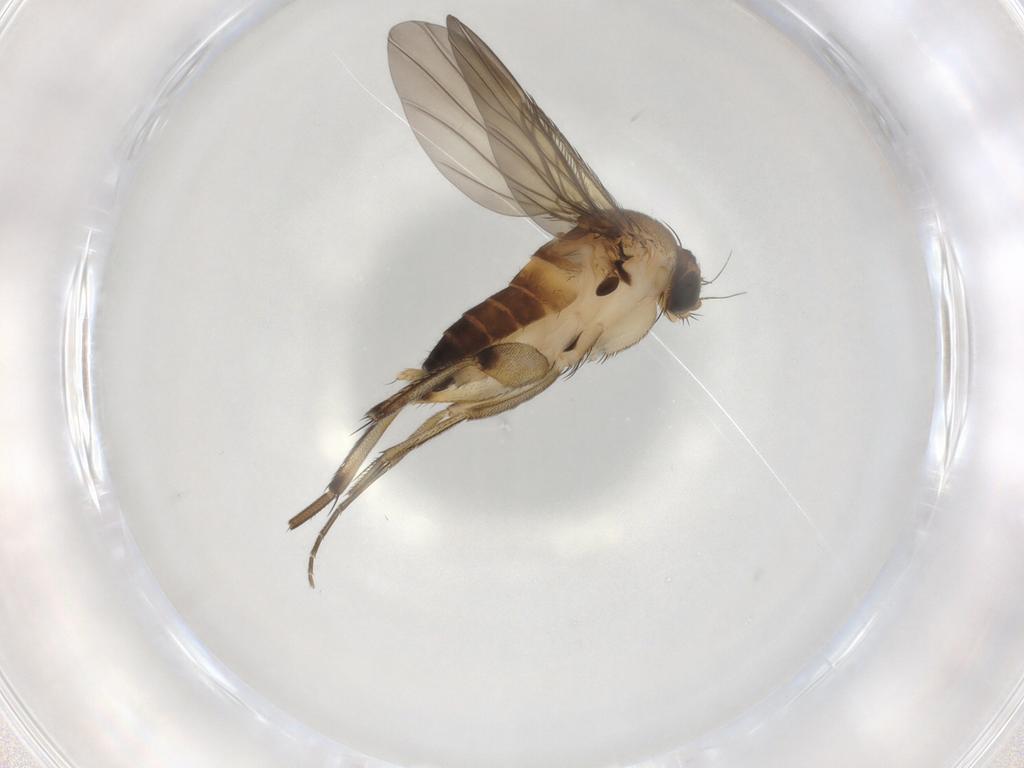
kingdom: Animalia
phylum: Arthropoda
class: Insecta
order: Diptera
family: Phoridae
